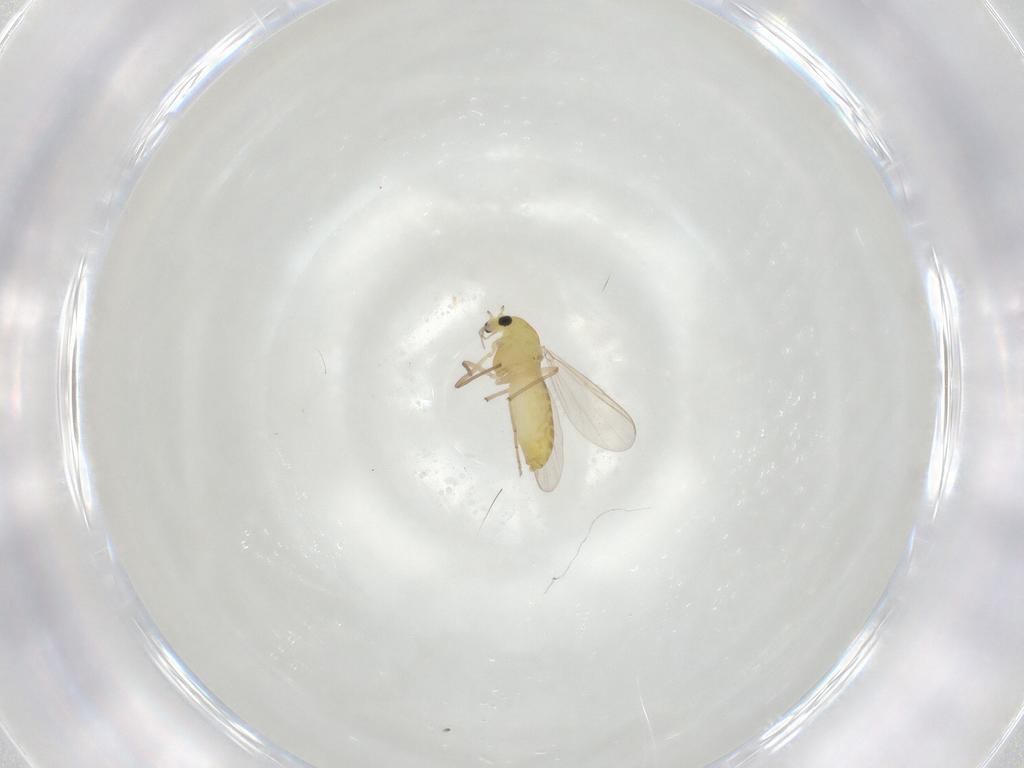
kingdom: Animalia
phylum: Arthropoda
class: Insecta
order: Diptera
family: Chironomidae
